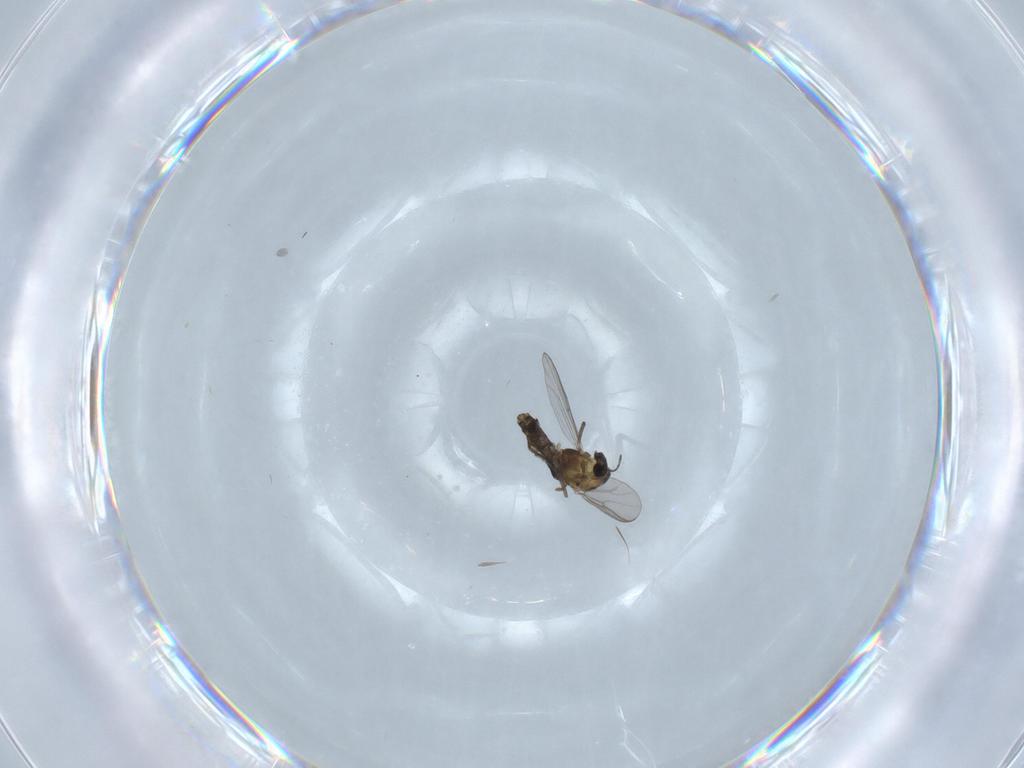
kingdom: Animalia
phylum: Arthropoda
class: Insecta
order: Diptera
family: Chironomidae
